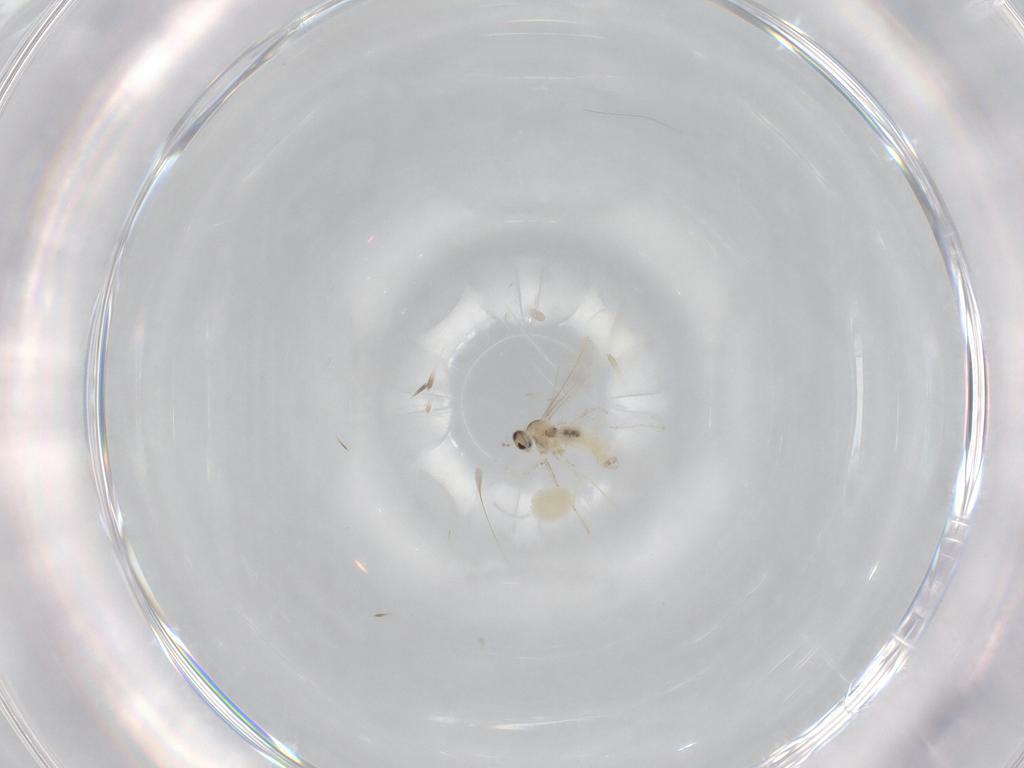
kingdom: Animalia
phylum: Arthropoda
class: Insecta
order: Diptera
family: Cecidomyiidae
